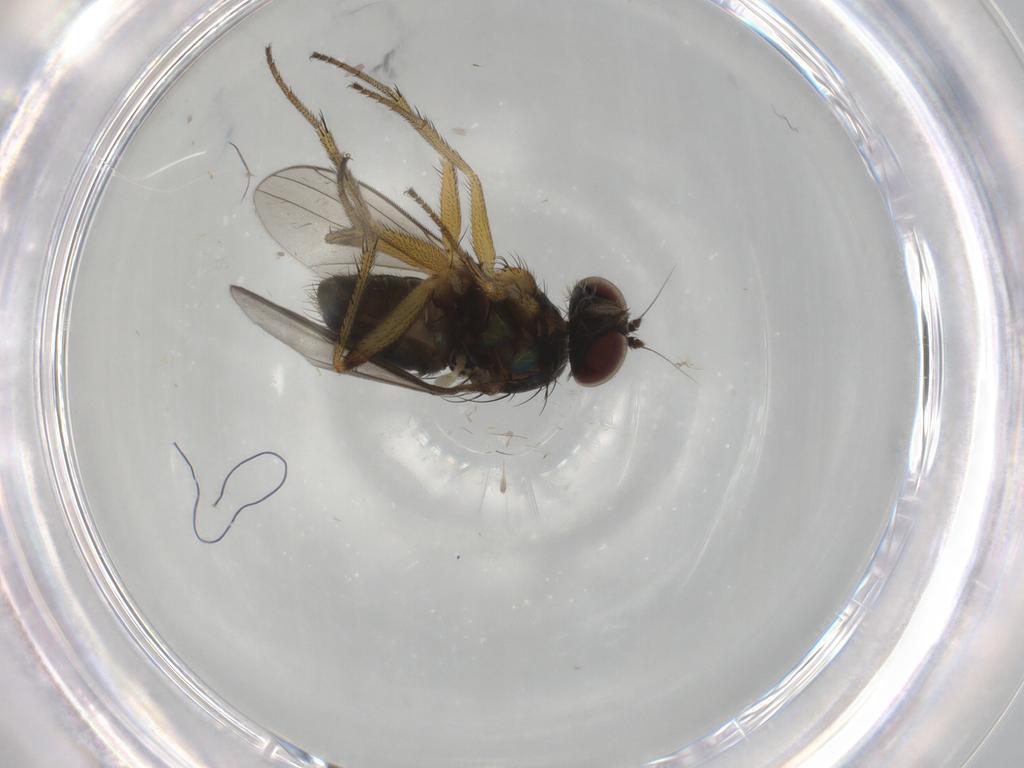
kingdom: Animalia
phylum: Arthropoda
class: Insecta
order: Diptera
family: Dolichopodidae
